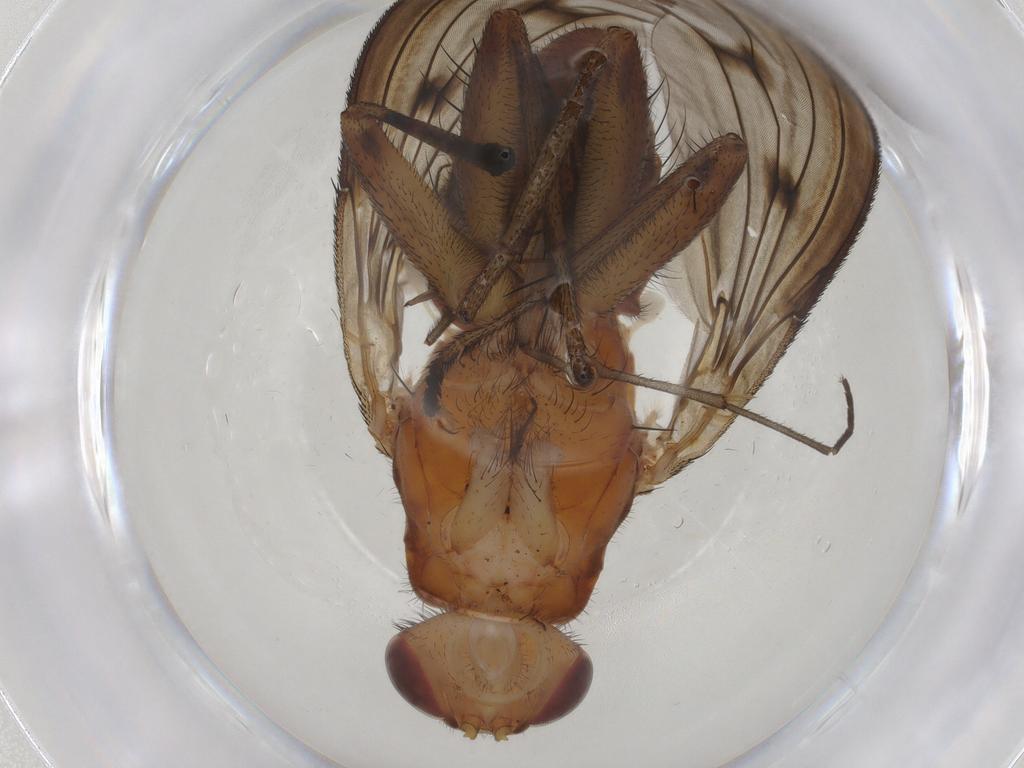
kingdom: Animalia
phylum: Arthropoda
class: Insecta
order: Diptera
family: Heleomyzidae
